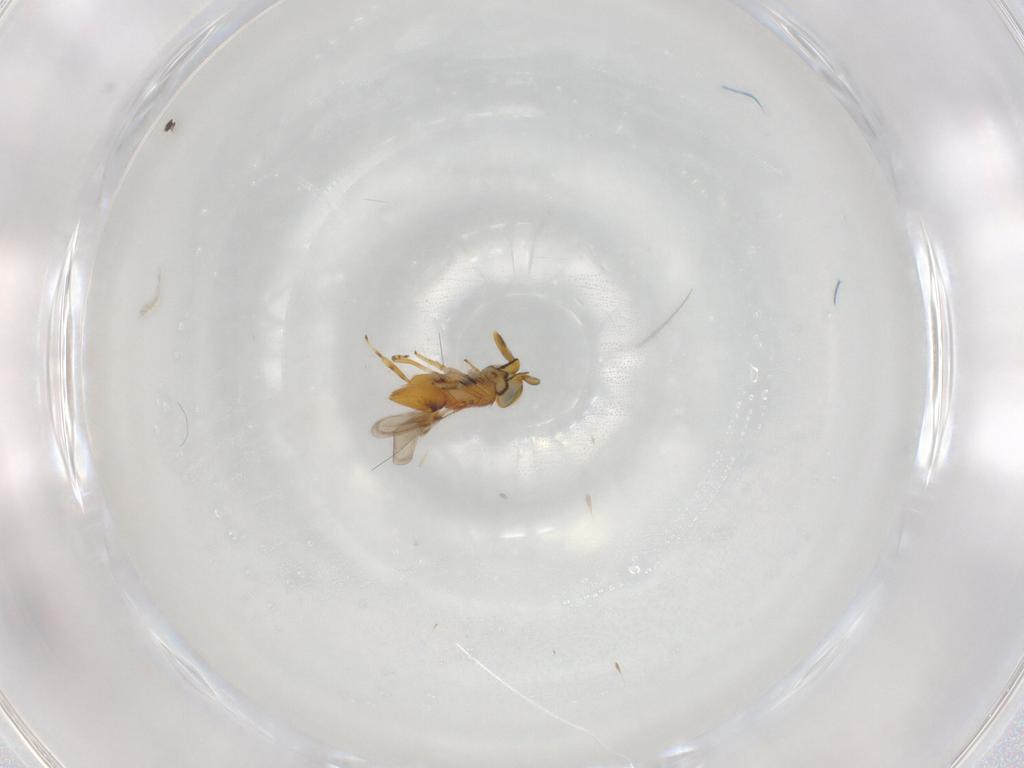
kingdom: Animalia
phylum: Arthropoda
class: Insecta
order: Hymenoptera
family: Encyrtidae
